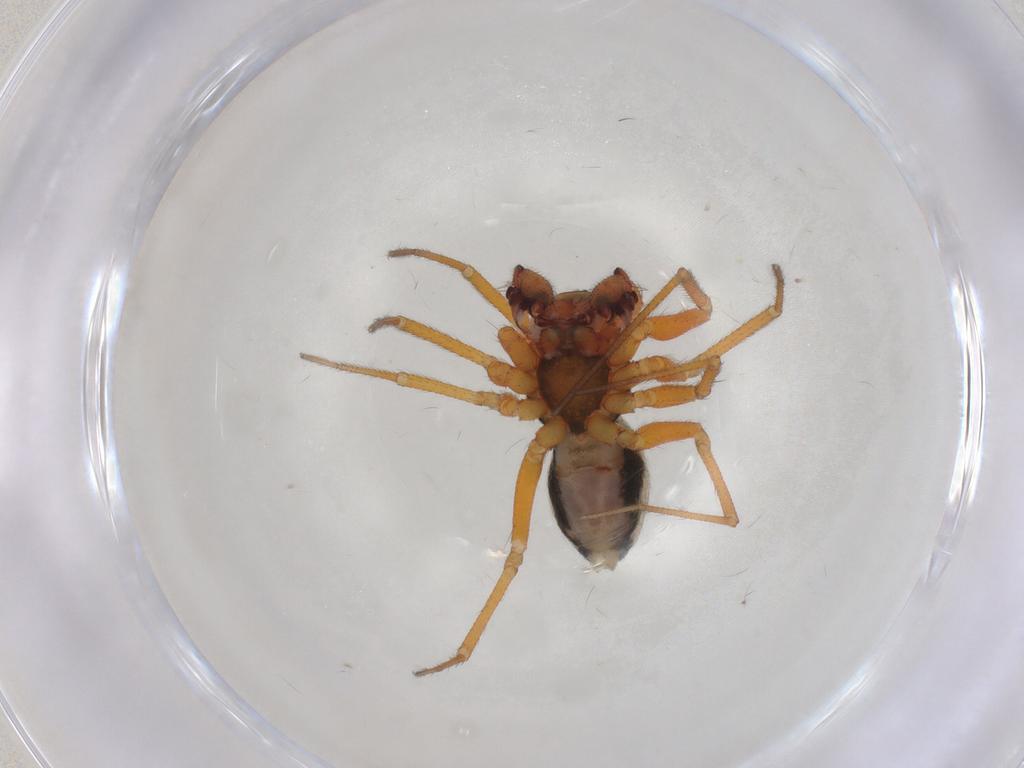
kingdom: Animalia
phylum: Arthropoda
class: Arachnida
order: Araneae
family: Linyphiidae
